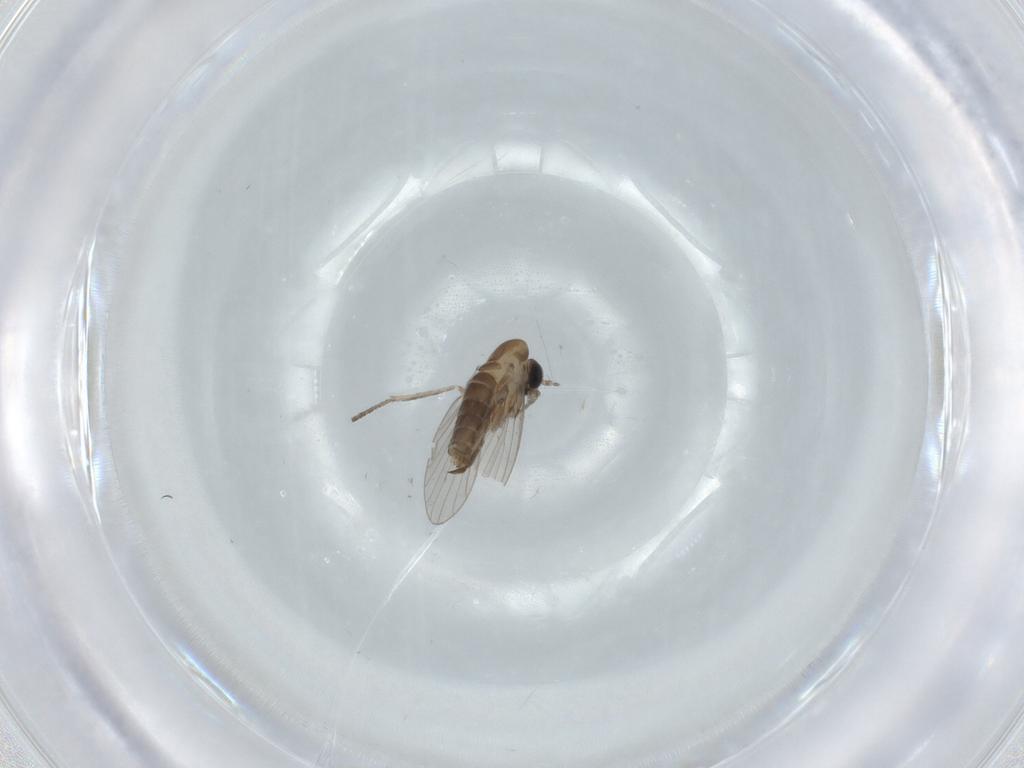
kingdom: Animalia
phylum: Arthropoda
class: Insecta
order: Diptera
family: Psychodidae
